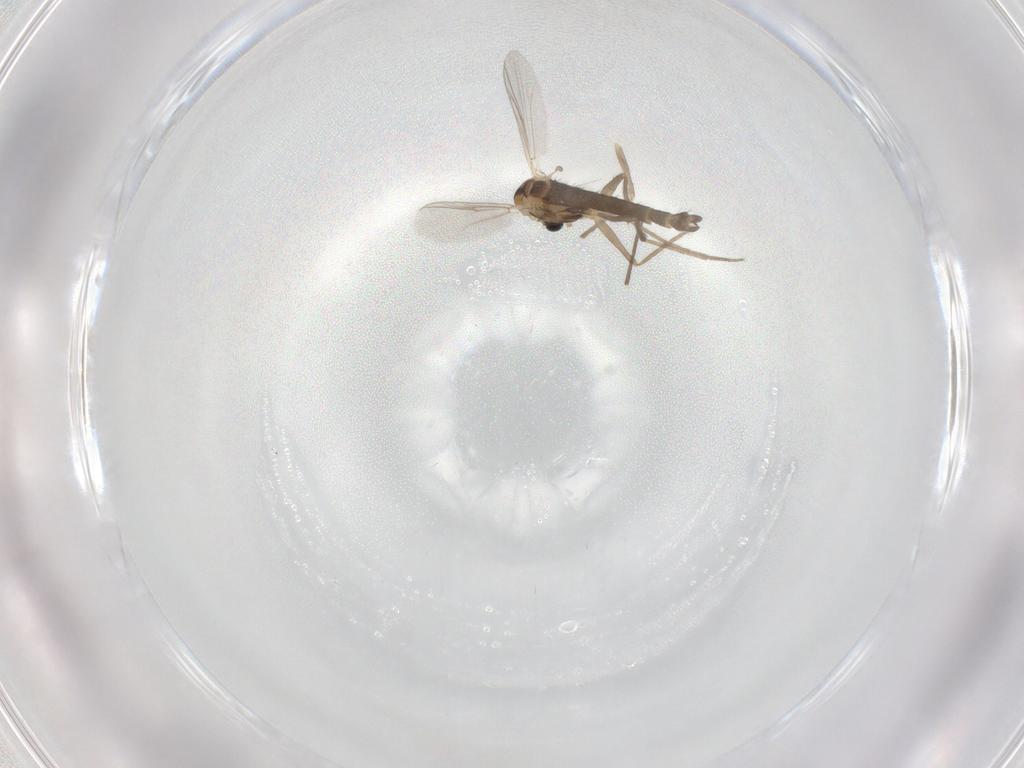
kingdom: Animalia
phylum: Arthropoda
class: Insecta
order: Diptera
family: Chironomidae
